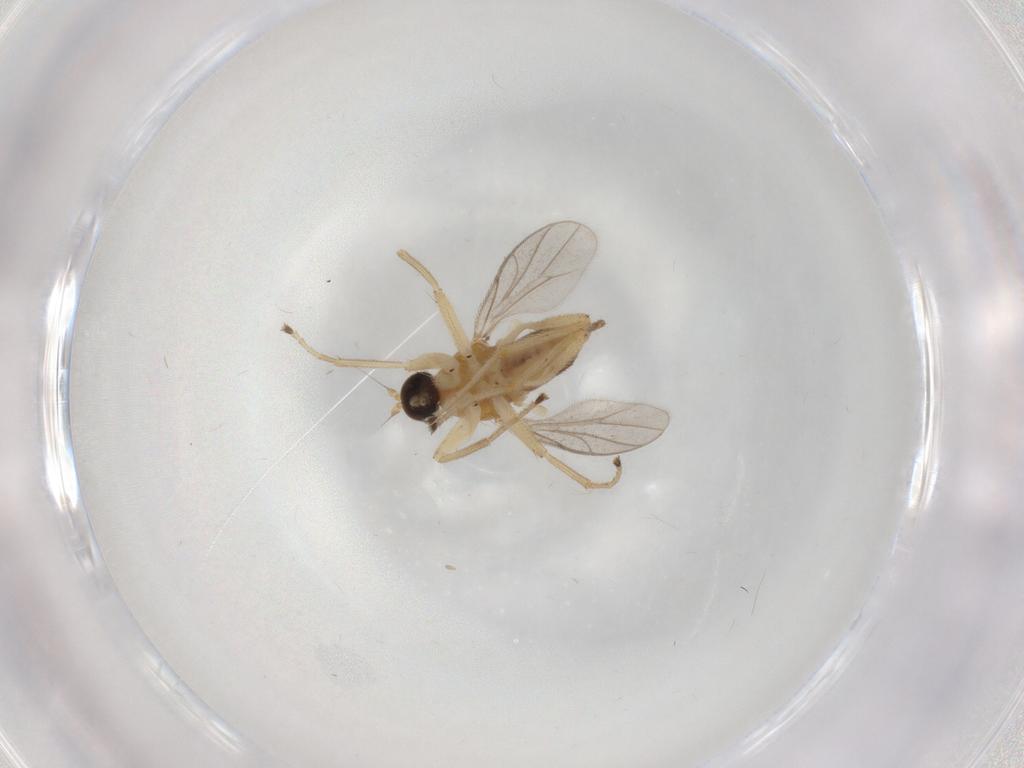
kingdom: Animalia
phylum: Arthropoda
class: Insecta
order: Diptera
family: Hybotidae
